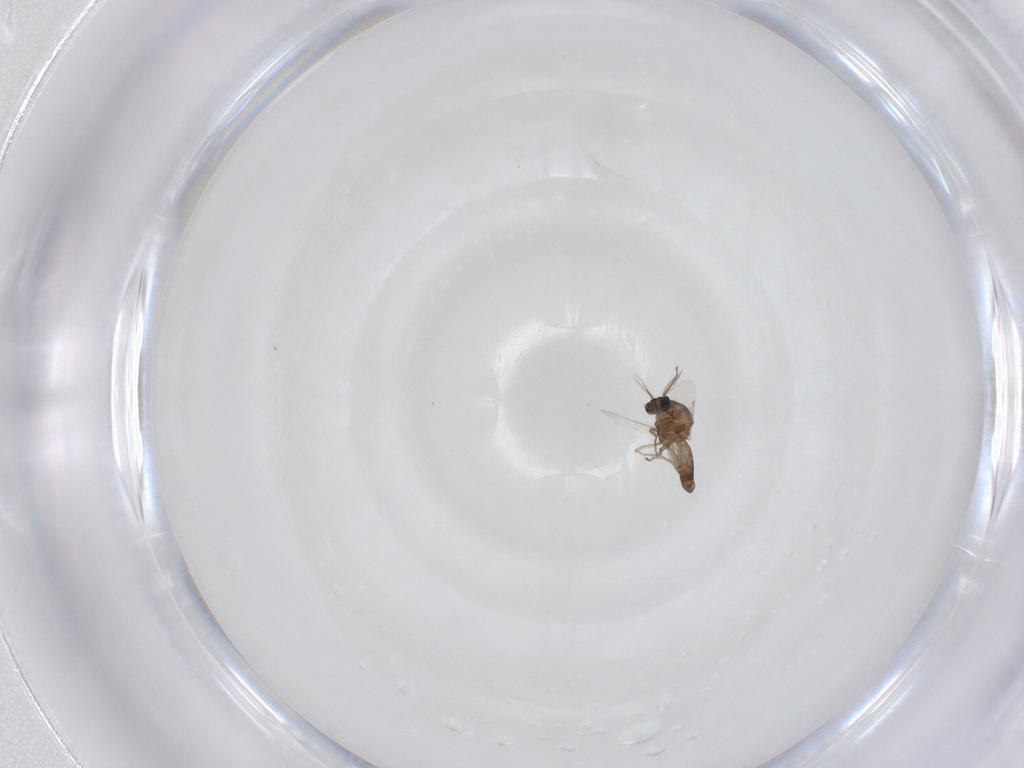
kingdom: Animalia
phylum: Arthropoda
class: Insecta
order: Diptera
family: Ceratopogonidae
